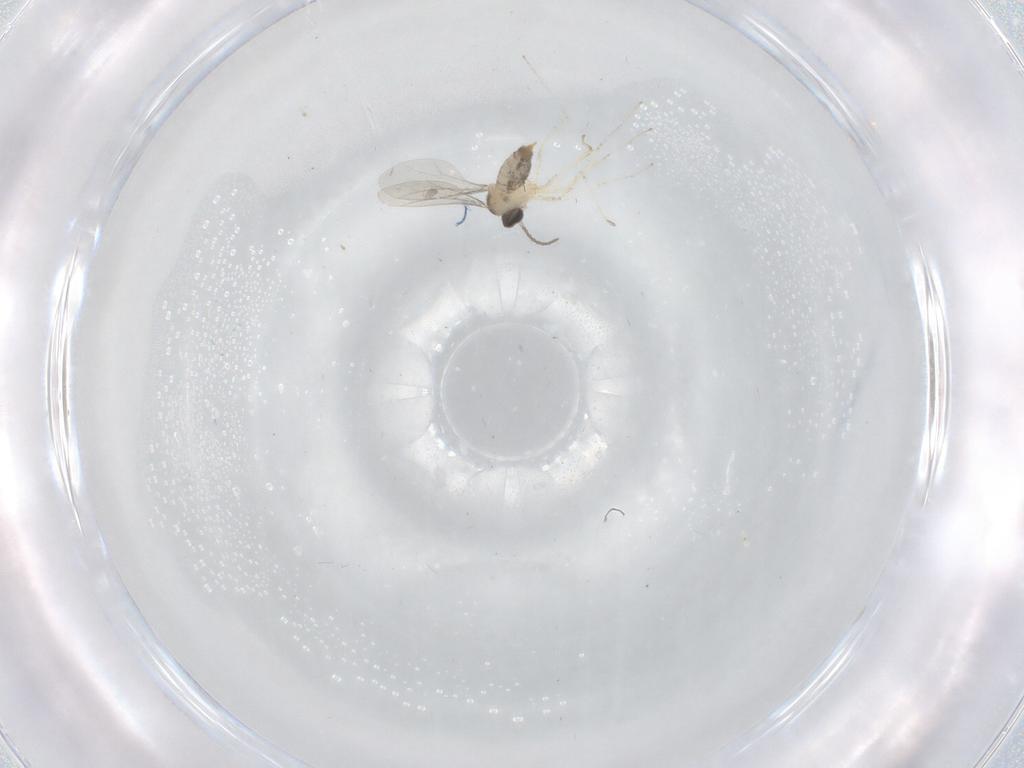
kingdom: Animalia
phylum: Arthropoda
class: Insecta
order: Diptera
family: Cecidomyiidae
